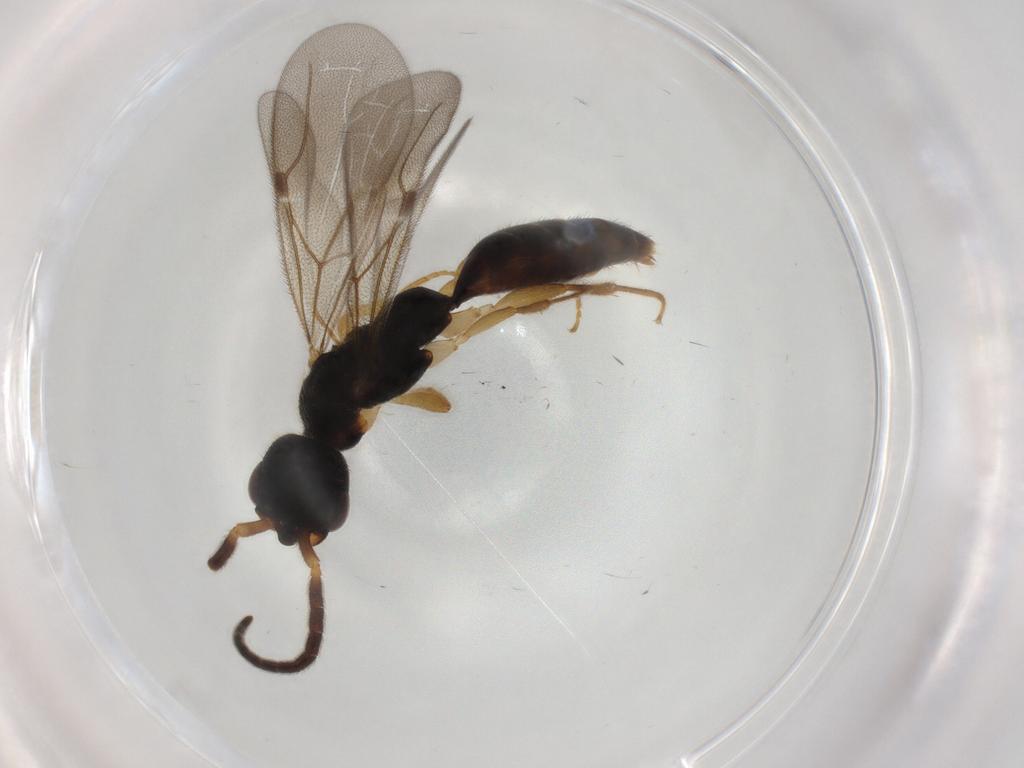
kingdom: Animalia
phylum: Arthropoda
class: Insecta
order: Hymenoptera
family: Bethylidae
